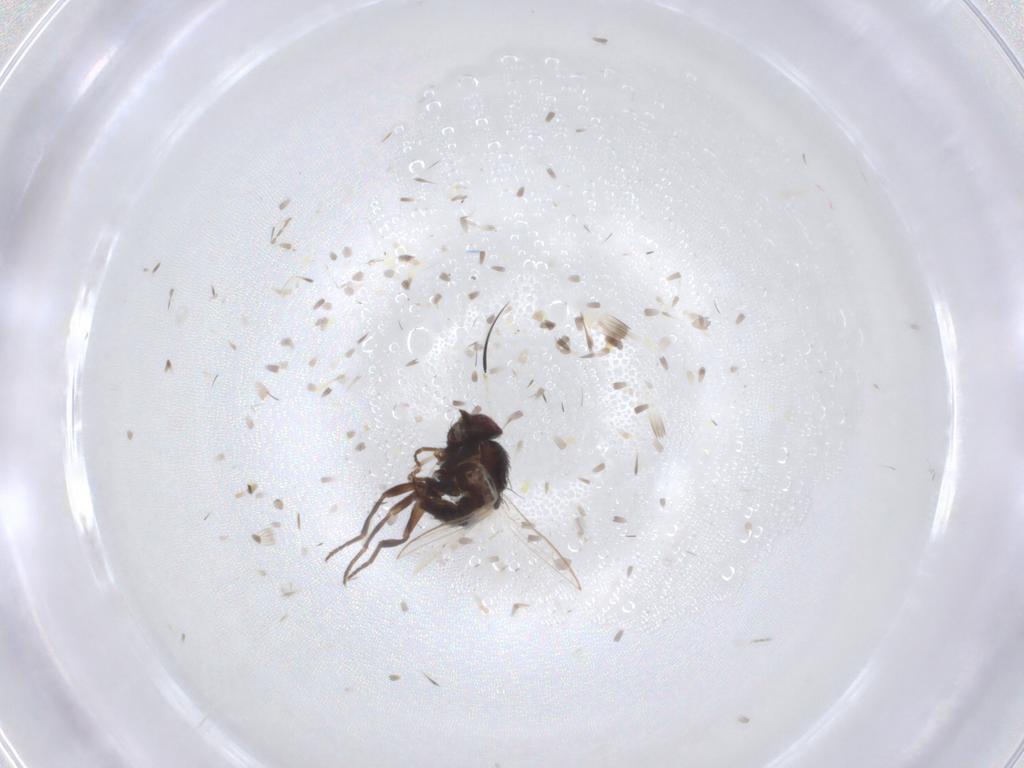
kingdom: Animalia
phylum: Arthropoda
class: Insecta
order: Diptera
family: Agromyzidae
